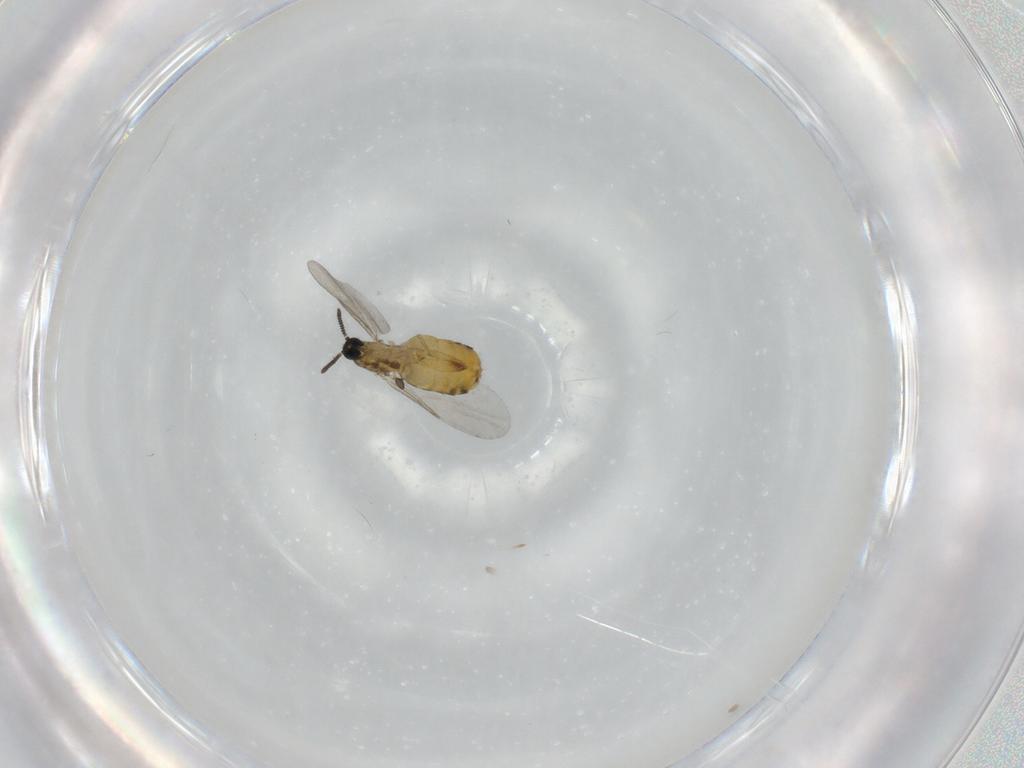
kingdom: Animalia
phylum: Arthropoda
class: Insecta
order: Diptera
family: Scatopsidae
